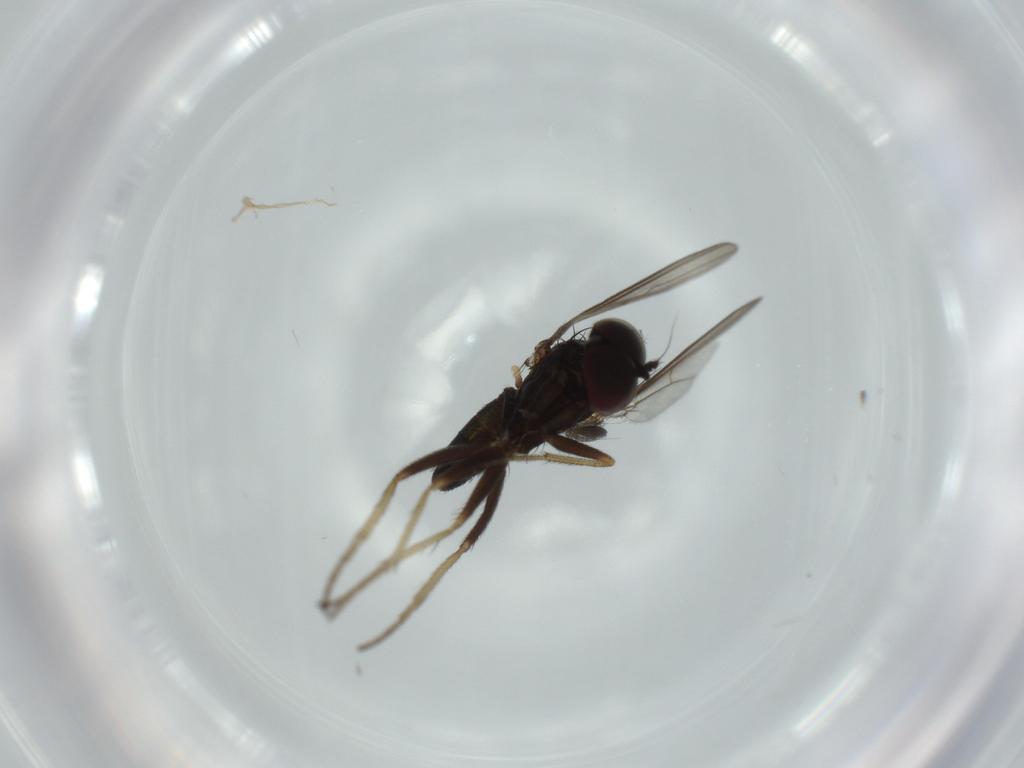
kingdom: Animalia
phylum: Arthropoda
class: Insecta
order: Diptera
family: Ceratopogonidae
